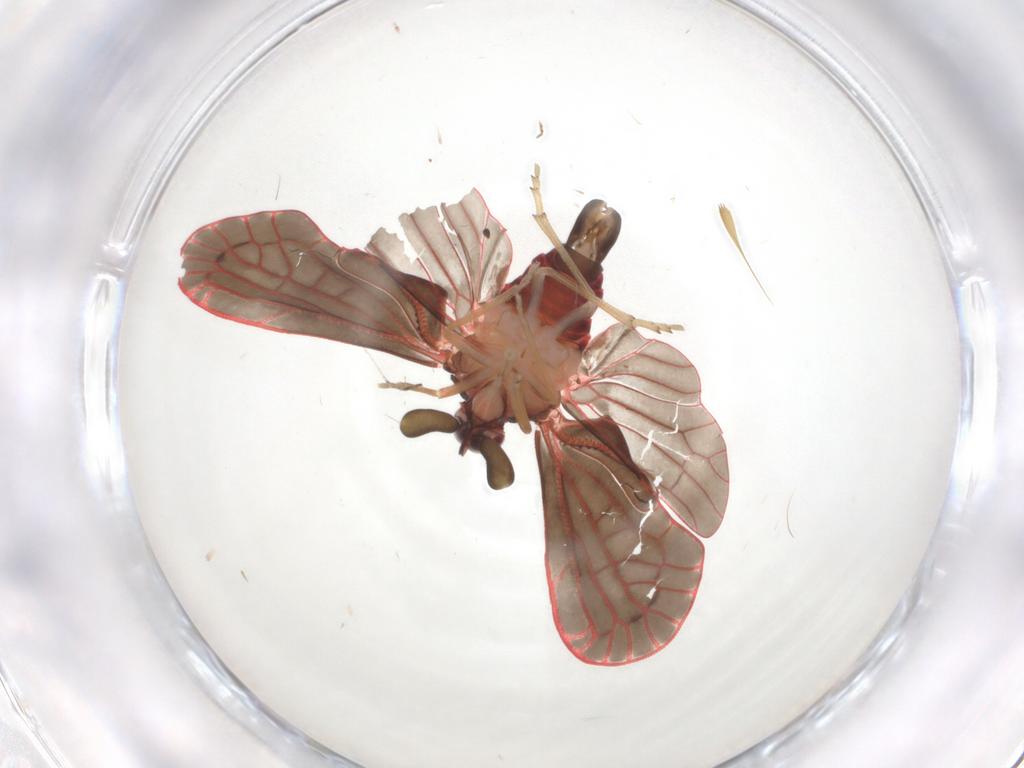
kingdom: Animalia
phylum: Arthropoda
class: Insecta
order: Hemiptera
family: Derbidae
